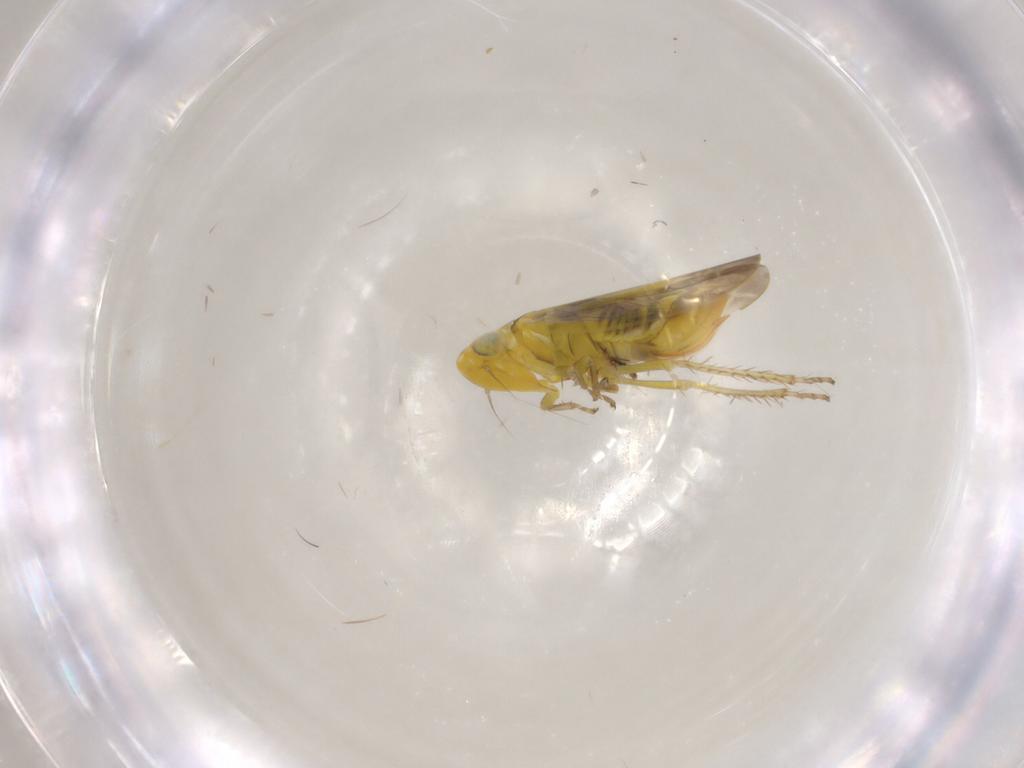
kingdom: Animalia
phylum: Arthropoda
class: Insecta
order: Hemiptera
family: Cicadellidae
